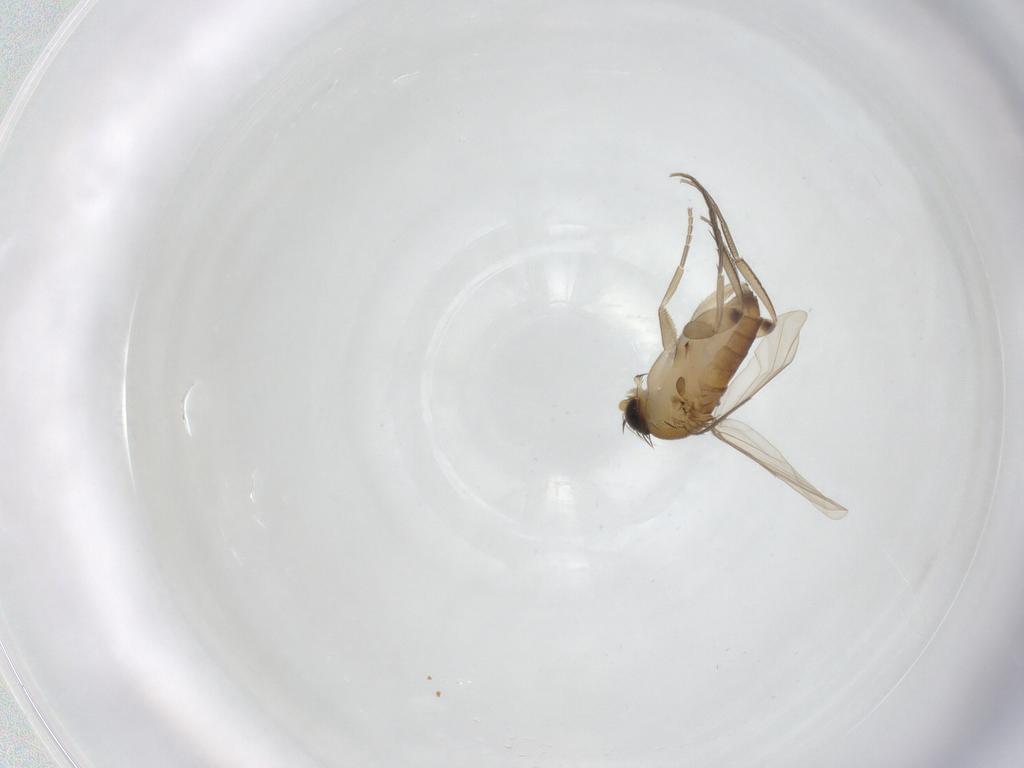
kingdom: Animalia
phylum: Arthropoda
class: Insecta
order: Diptera
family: Phoridae
